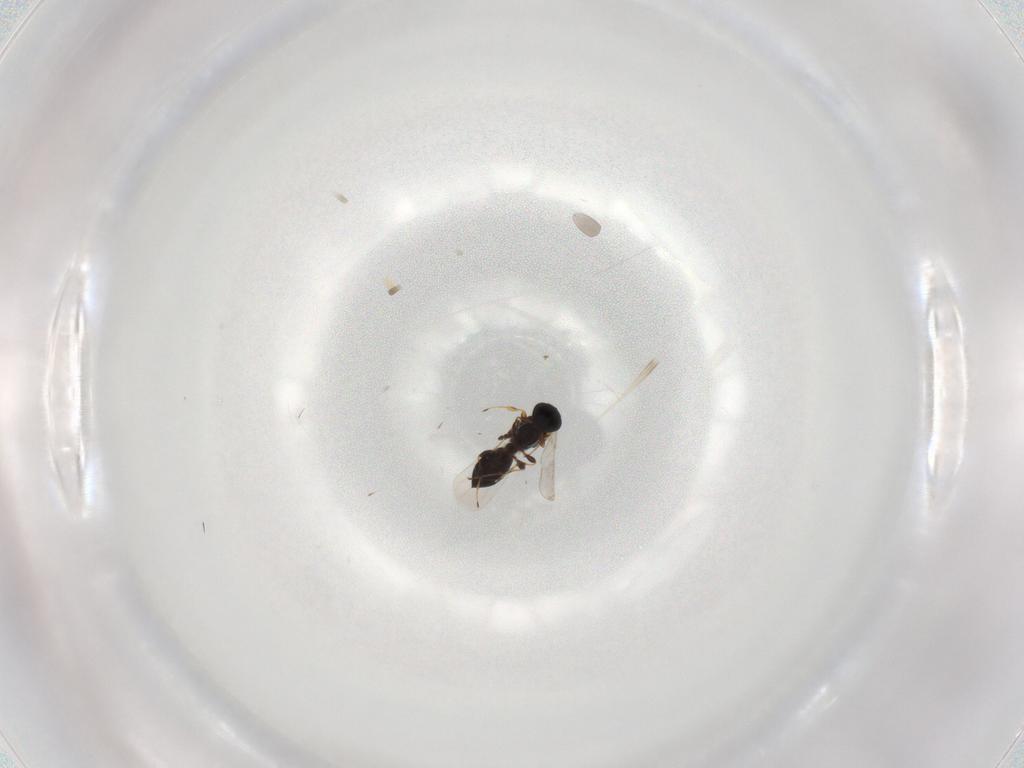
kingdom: Animalia
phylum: Arthropoda
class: Insecta
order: Hymenoptera
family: Platygastridae
